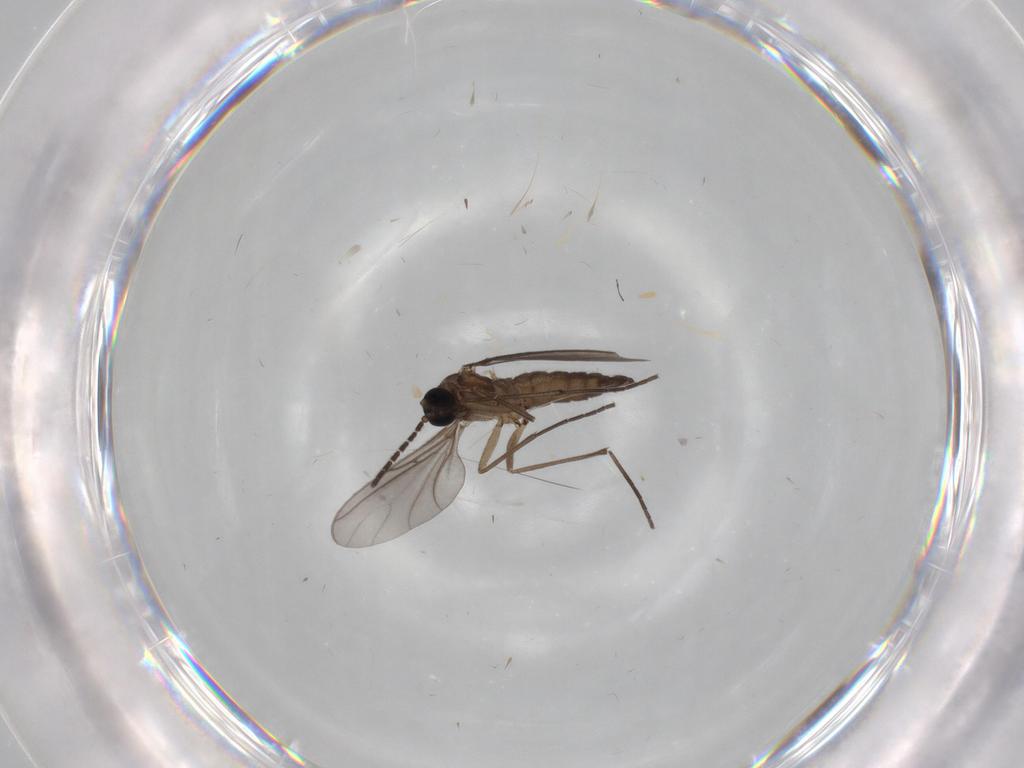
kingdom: Animalia
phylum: Arthropoda
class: Insecta
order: Diptera
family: Sciaridae
